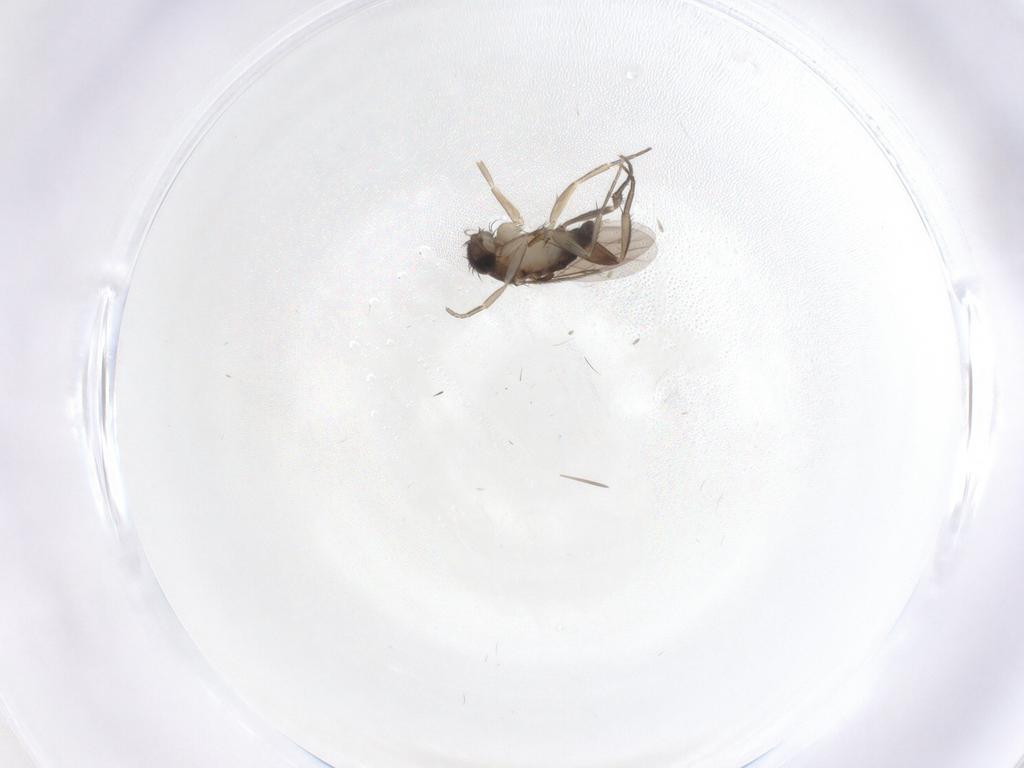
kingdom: Animalia
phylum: Arthropoda
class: Insecta
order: Diptera
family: Phoridae
